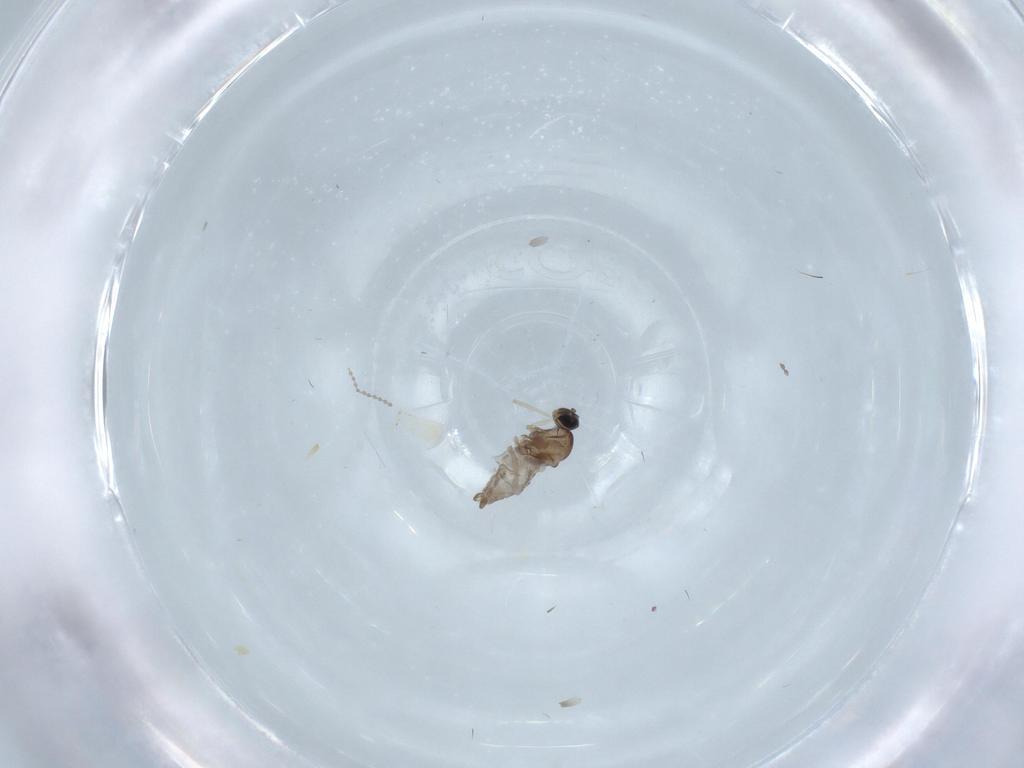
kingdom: Animalia
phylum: Arthropoda
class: Insecta
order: Diptera
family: Cecidomyiidae
